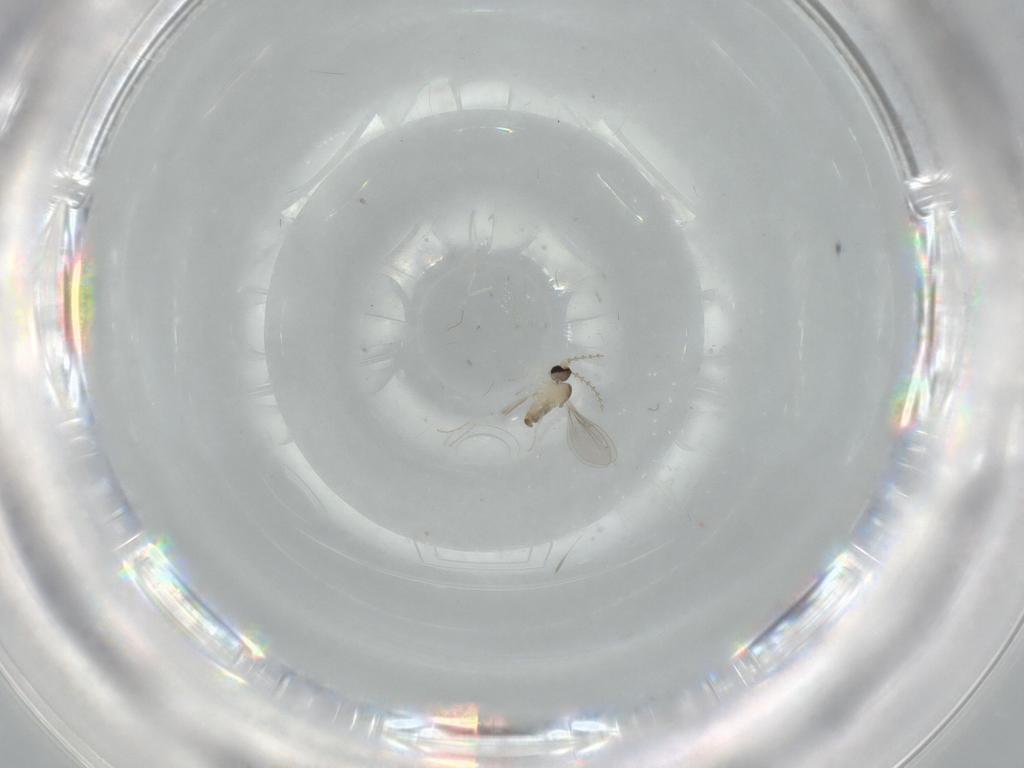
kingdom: Animalia
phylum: Arthropoda
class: Insecta
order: Diptera
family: Cecidomyiidae
